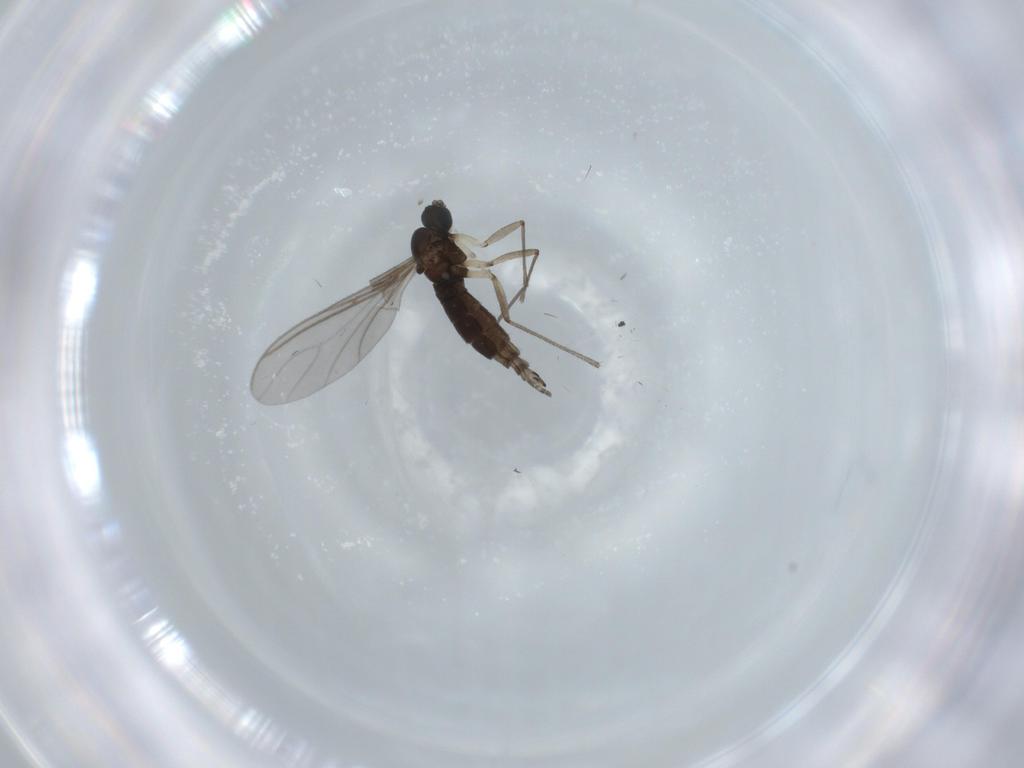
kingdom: Animalia
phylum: Arthropoda
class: Insecta
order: Diptera
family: Sciaridae
